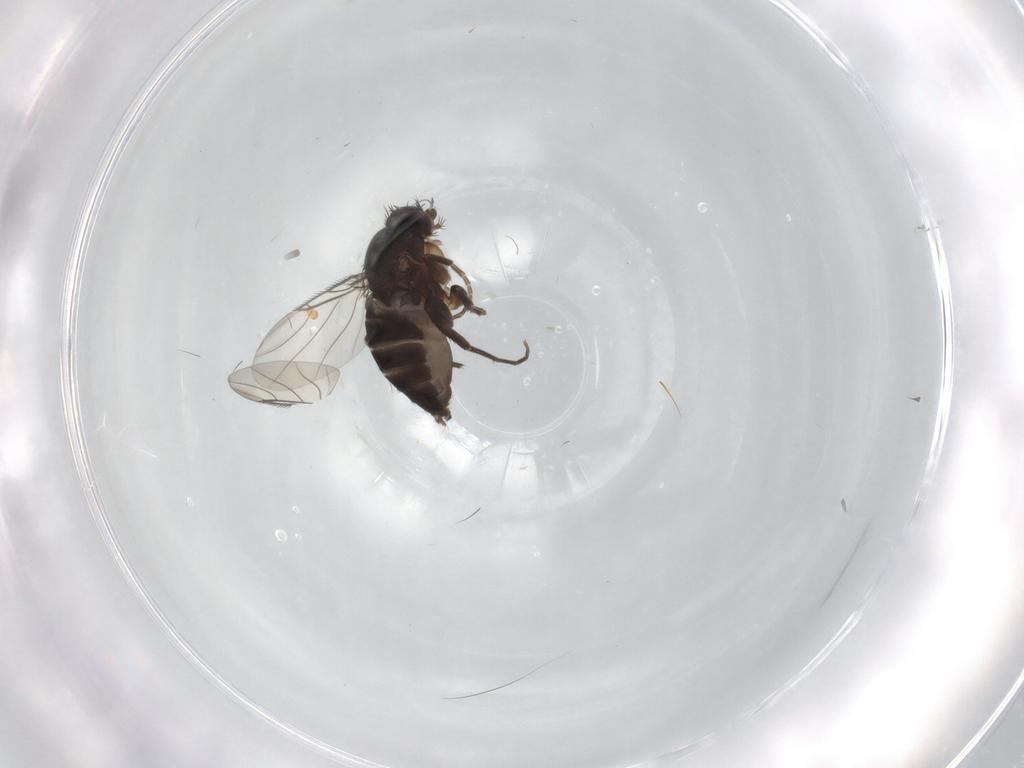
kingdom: Animalia
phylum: Arthropoda
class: Insecta
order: Diptera
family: Phoridae
